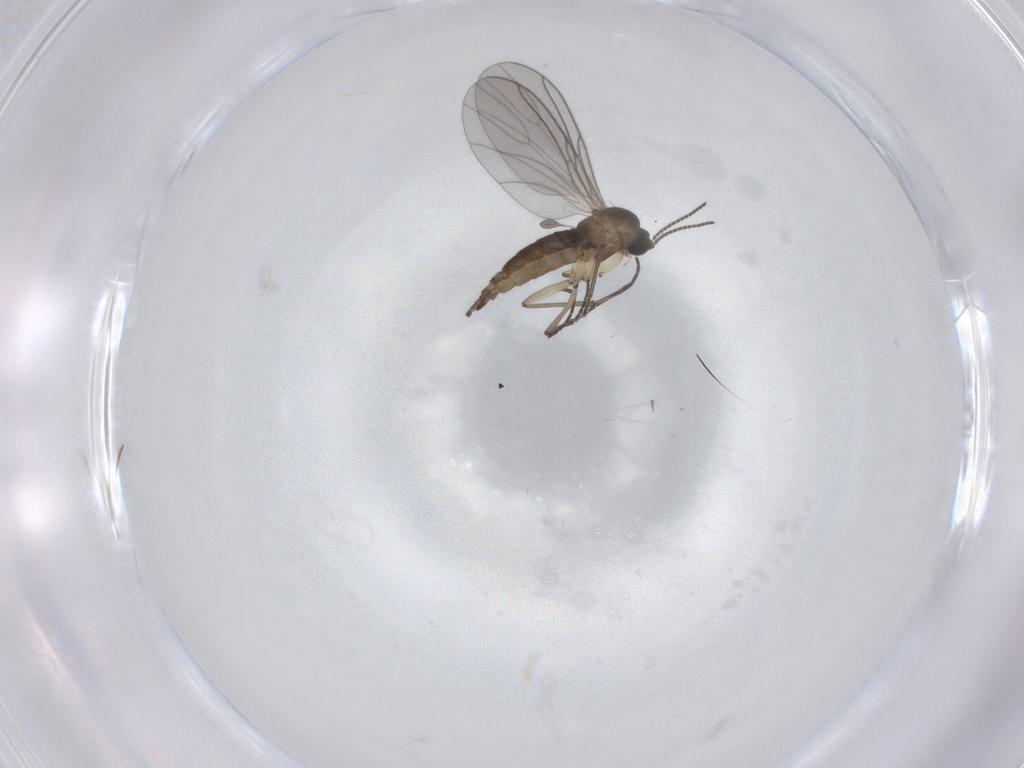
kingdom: Animalia
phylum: Arthropoda
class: Insecta
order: Diptera
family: Sciaridae
